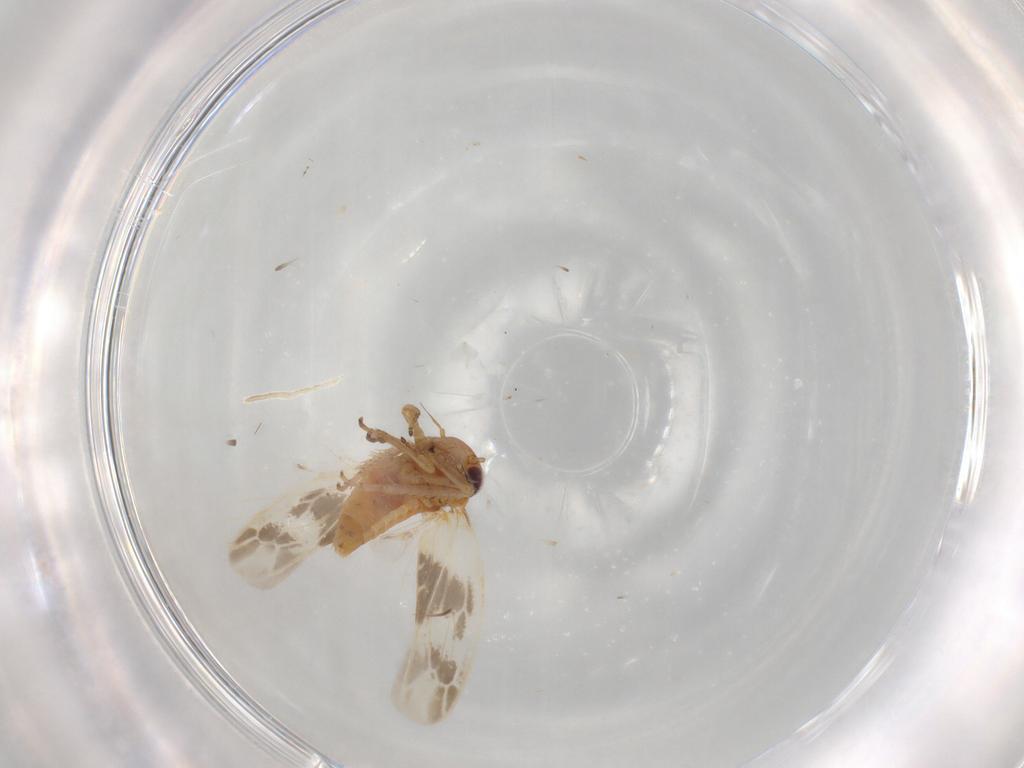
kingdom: Animalia
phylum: Arthropoda
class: Insecta
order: Hemiptera
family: Cicadellidae
